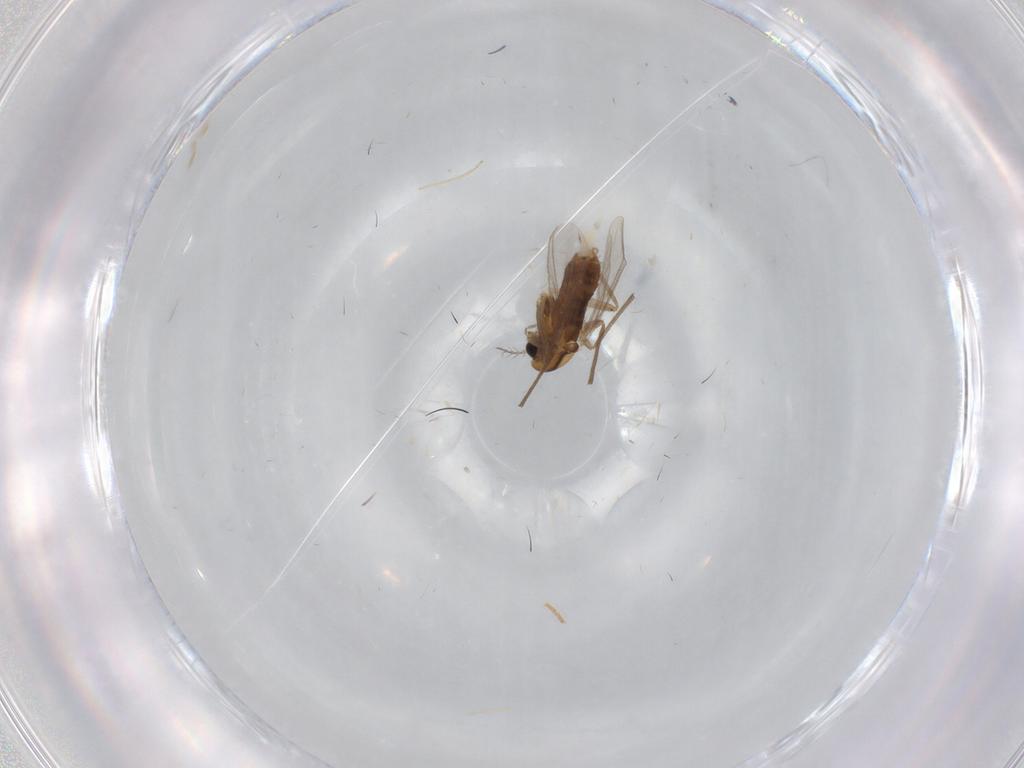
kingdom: Animalia
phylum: Arthropoda
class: Insecta
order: Diptera
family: Chironomidae
